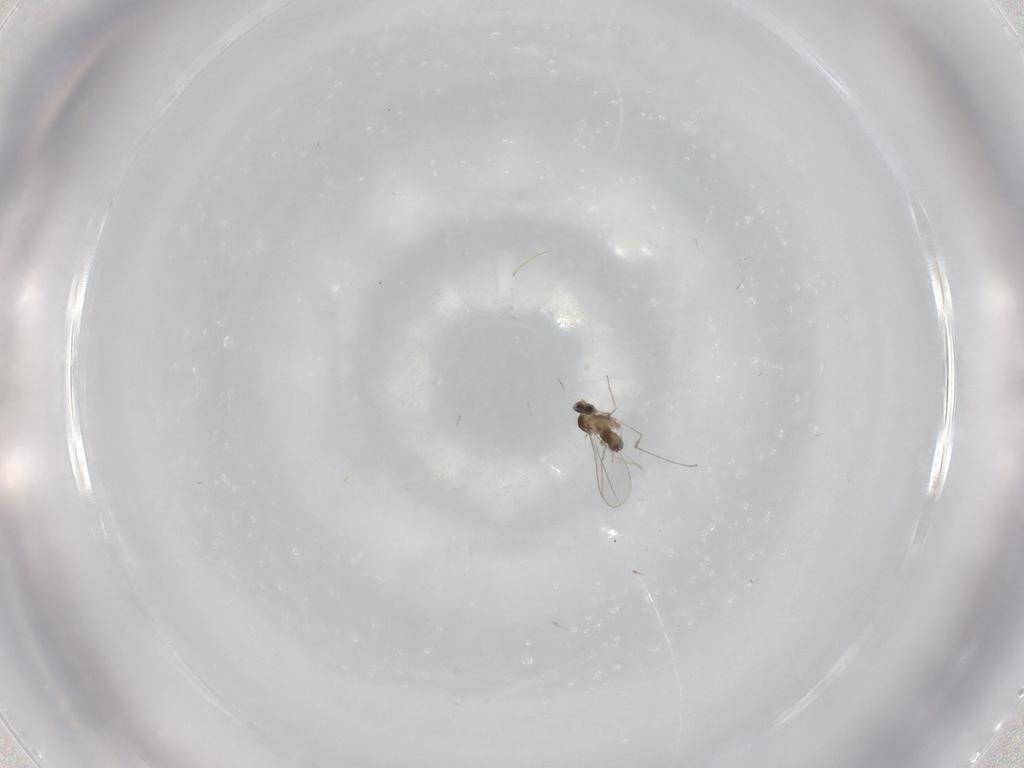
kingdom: Animalia
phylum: Arthropoda
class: Insecta
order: Diptera
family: Cecidomyiidae
